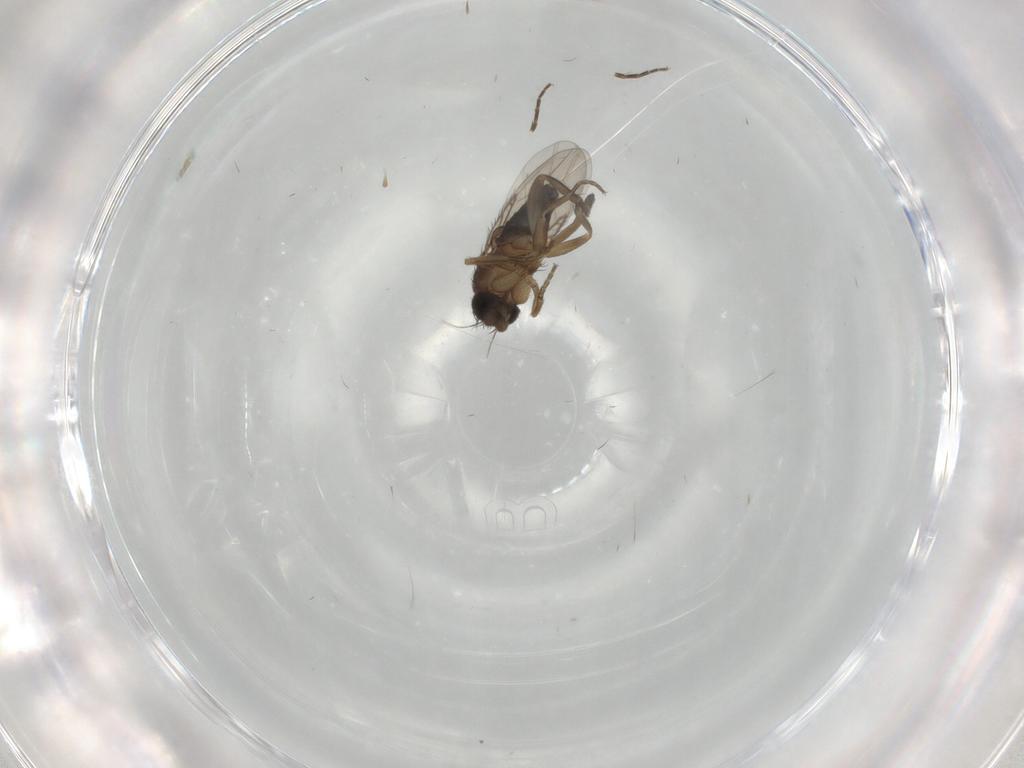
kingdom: Animalia
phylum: Arthropoda
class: Insecta
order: Diptera
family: Phoridae
